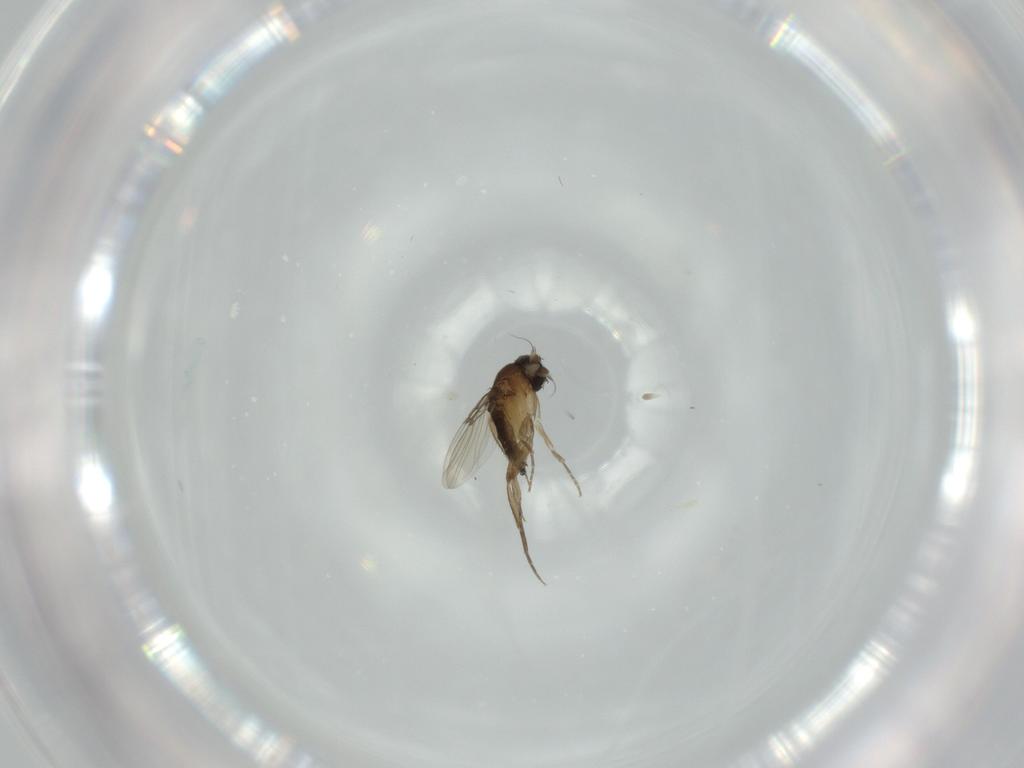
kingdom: Animalia
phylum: Arthropoda
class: Insecta
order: Diptera
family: Phoridae
